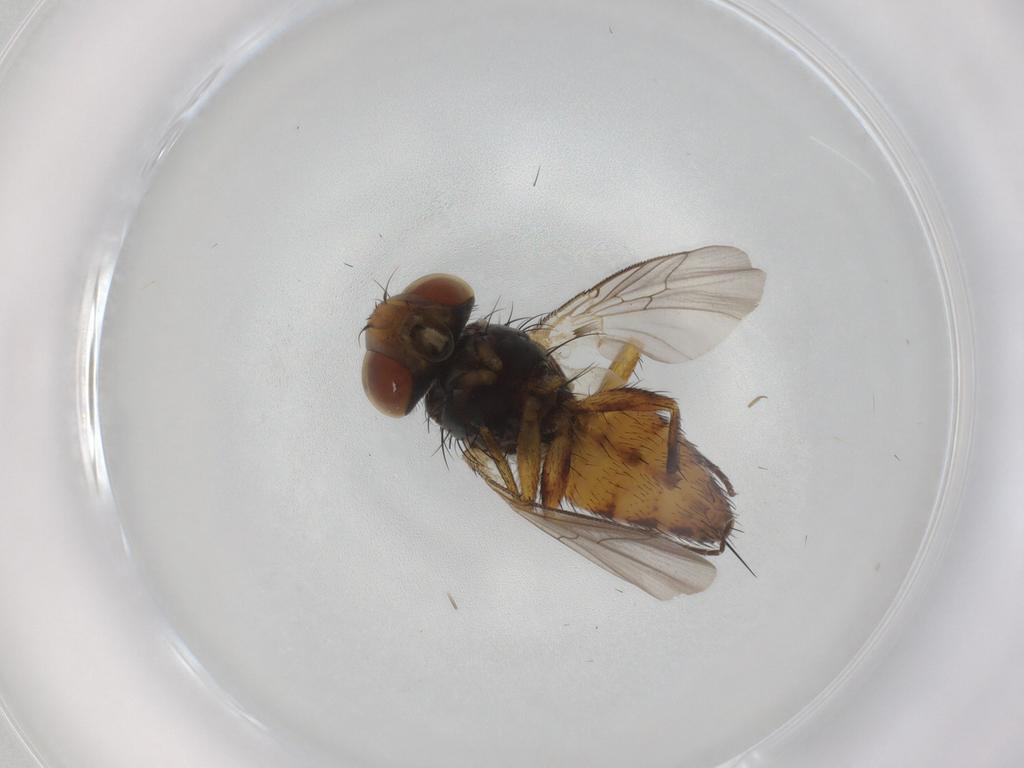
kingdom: Animalia
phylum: Arthropoda
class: Insecta
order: Diptera
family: Sarcophagidae
